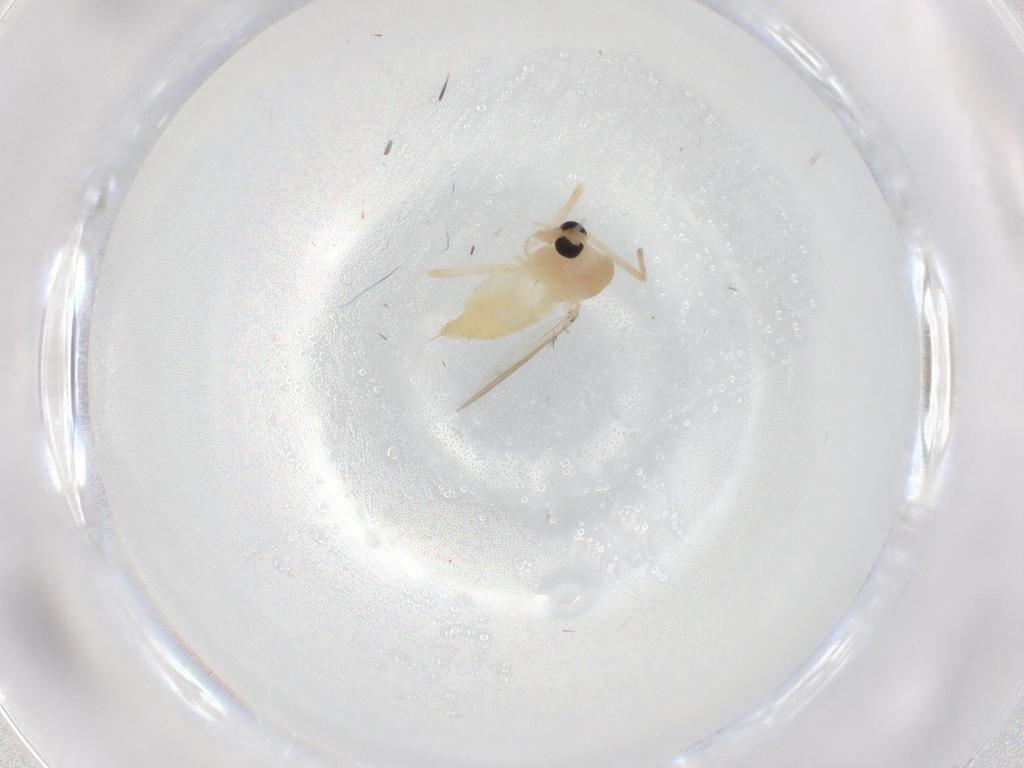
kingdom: Animalia
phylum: Arthropoda
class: Insecta
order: Diptera
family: Chironomidae
